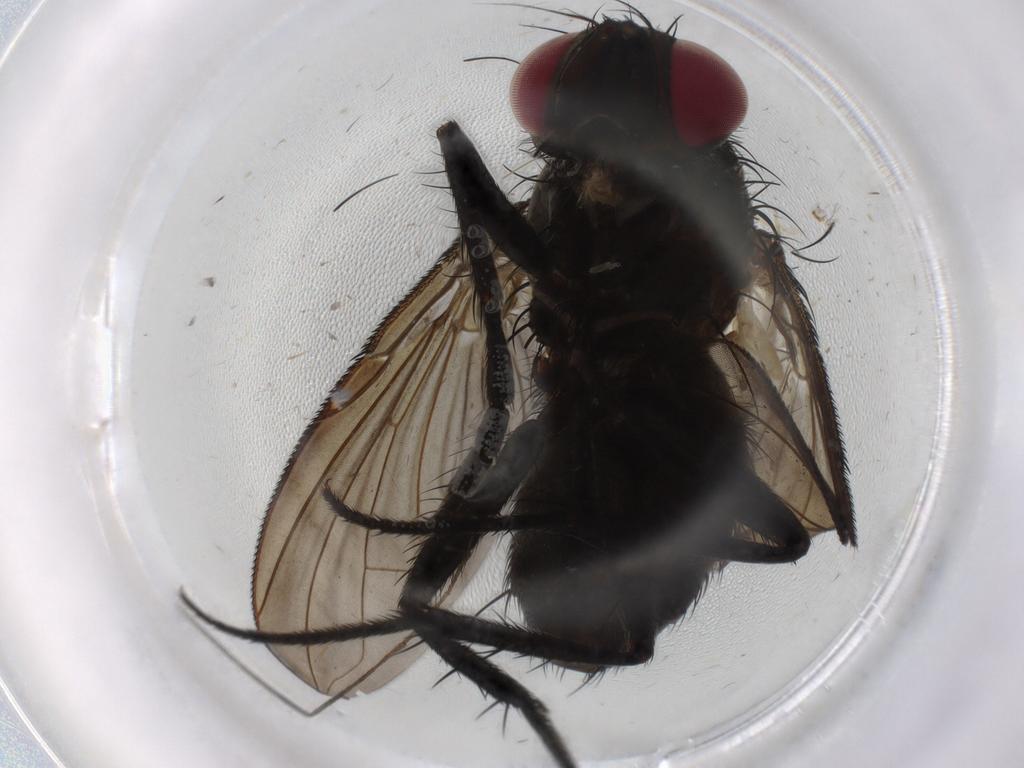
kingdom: Animalia
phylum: Arthropoda
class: Insecta
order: Diptera
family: Limoniidae
